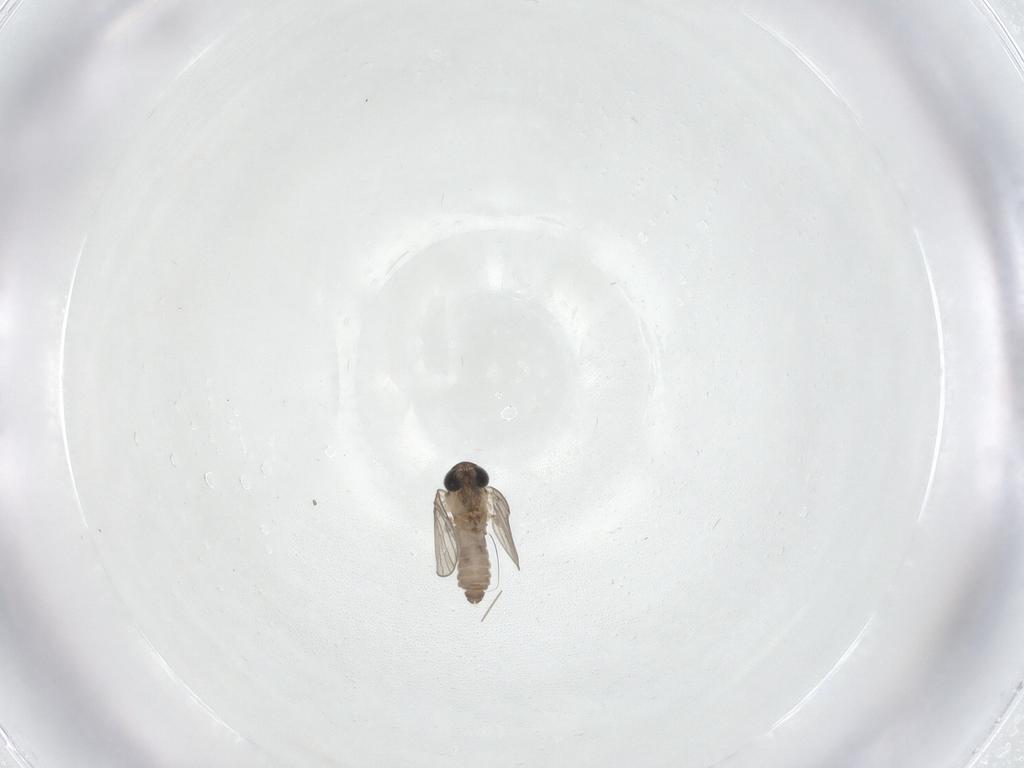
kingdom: Animalia
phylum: Arthropoda
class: Insecta
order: Diptera
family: Psychodidae
